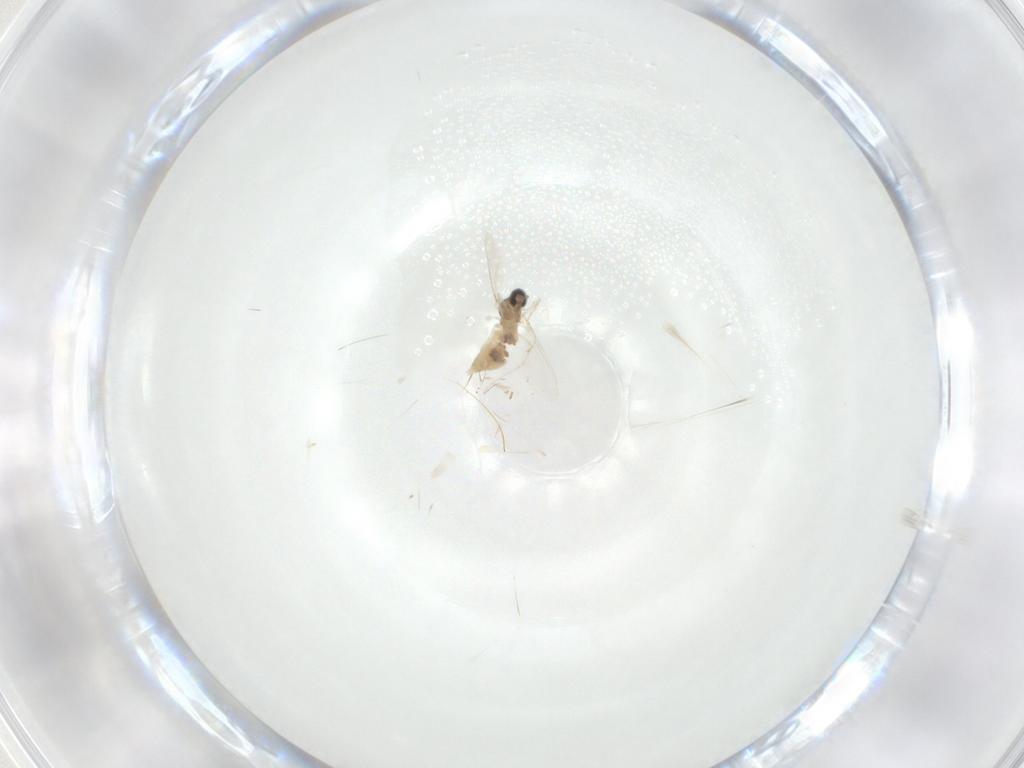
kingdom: Animalia
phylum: Arthropoda
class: Insecta
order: Diptera
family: Cecidomyiidae
